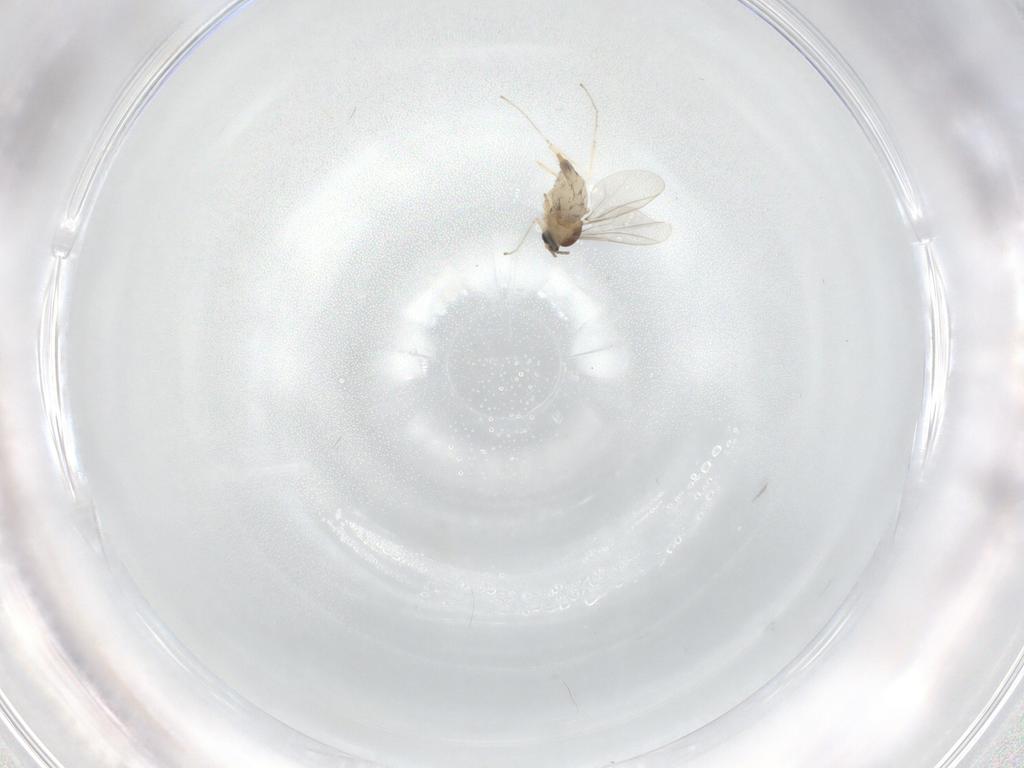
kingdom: Animalia
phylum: Arthropoda
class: Insecta
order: Diptera
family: Cecidomyiidae
